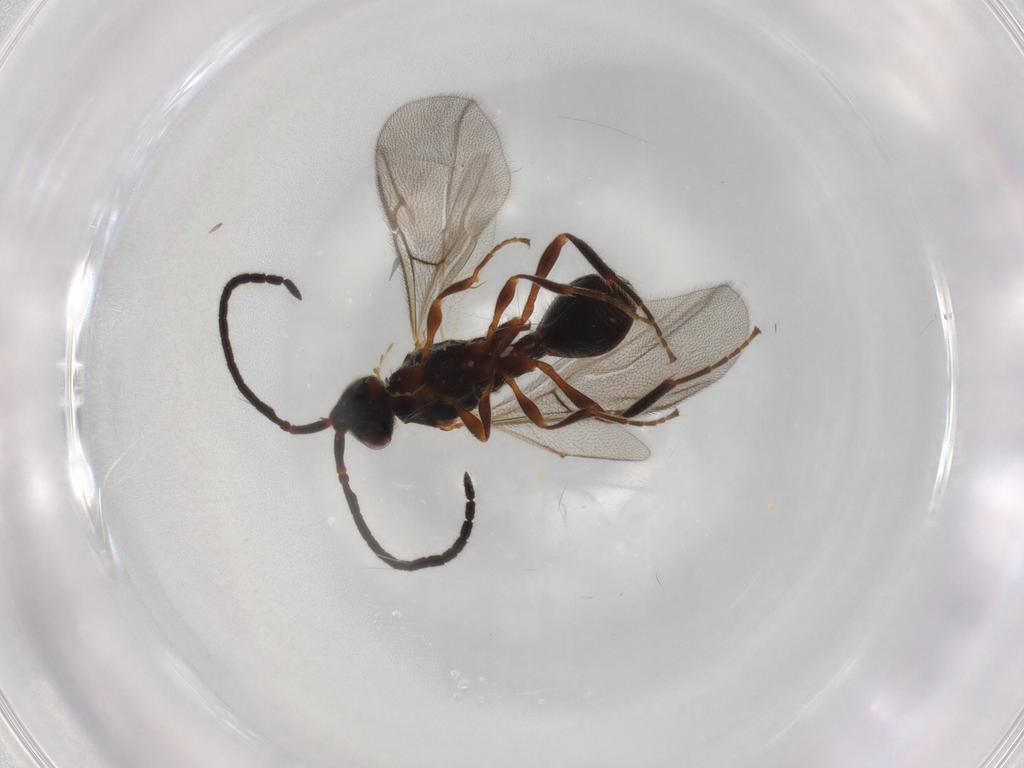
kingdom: Animalia
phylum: Arthropoda
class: Insecta
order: Hymenoptera
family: Diapriidae
